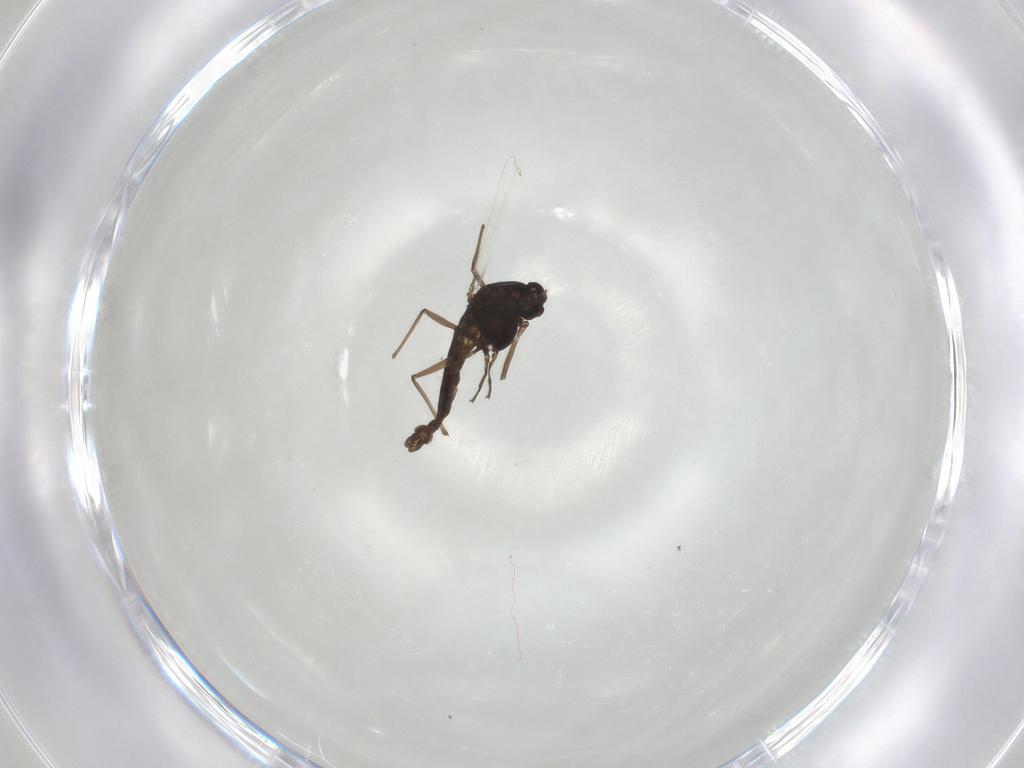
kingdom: Animalia
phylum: Arthropoda
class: Insecta
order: Diptera
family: Chironomidae
